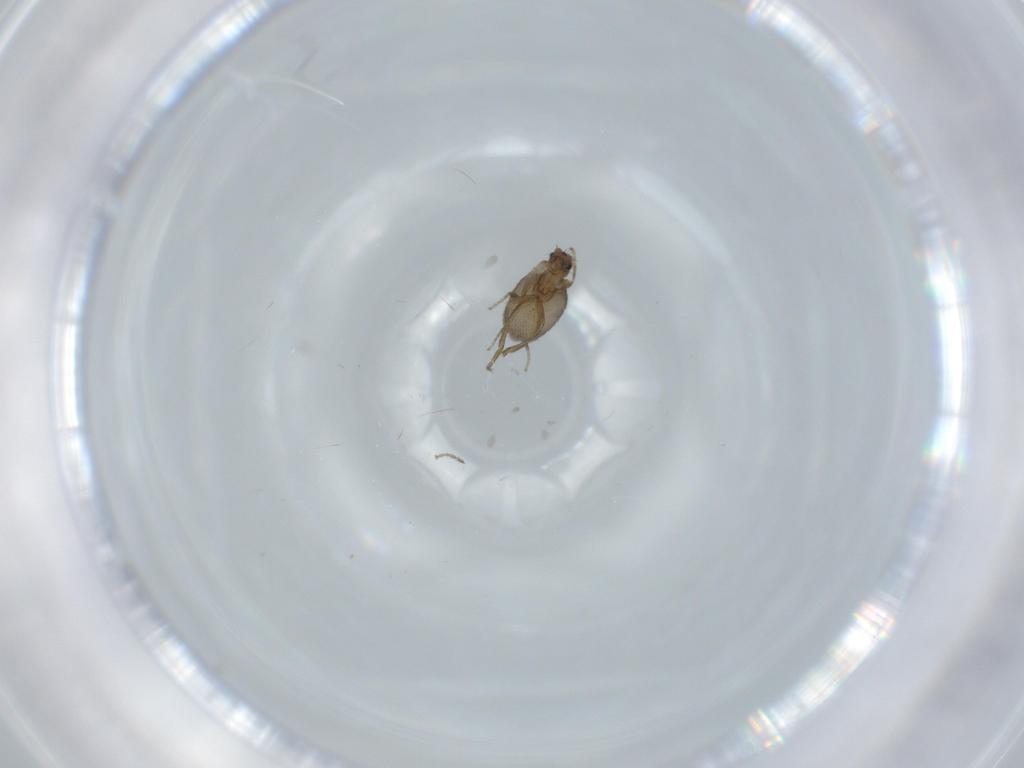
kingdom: Animalia
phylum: Arthropoda
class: Insecta
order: Diptera
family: Phoridae
